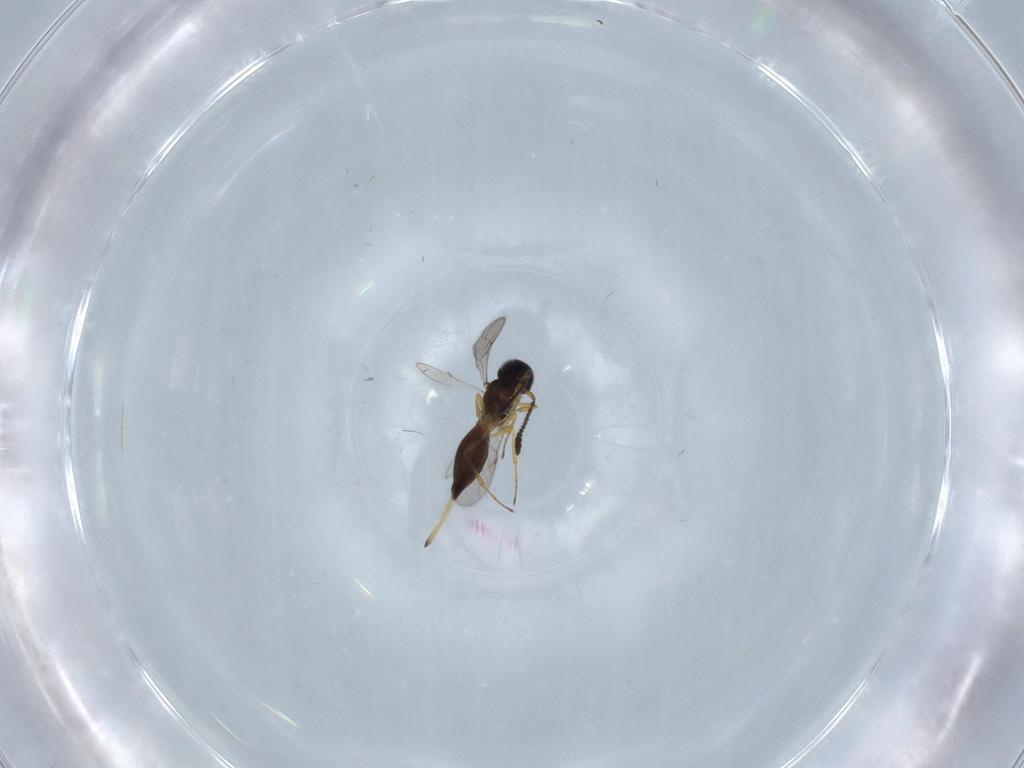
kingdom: Animalia
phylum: Arthropoda
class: Insecta
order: Hymenoptera
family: Scelionidae
